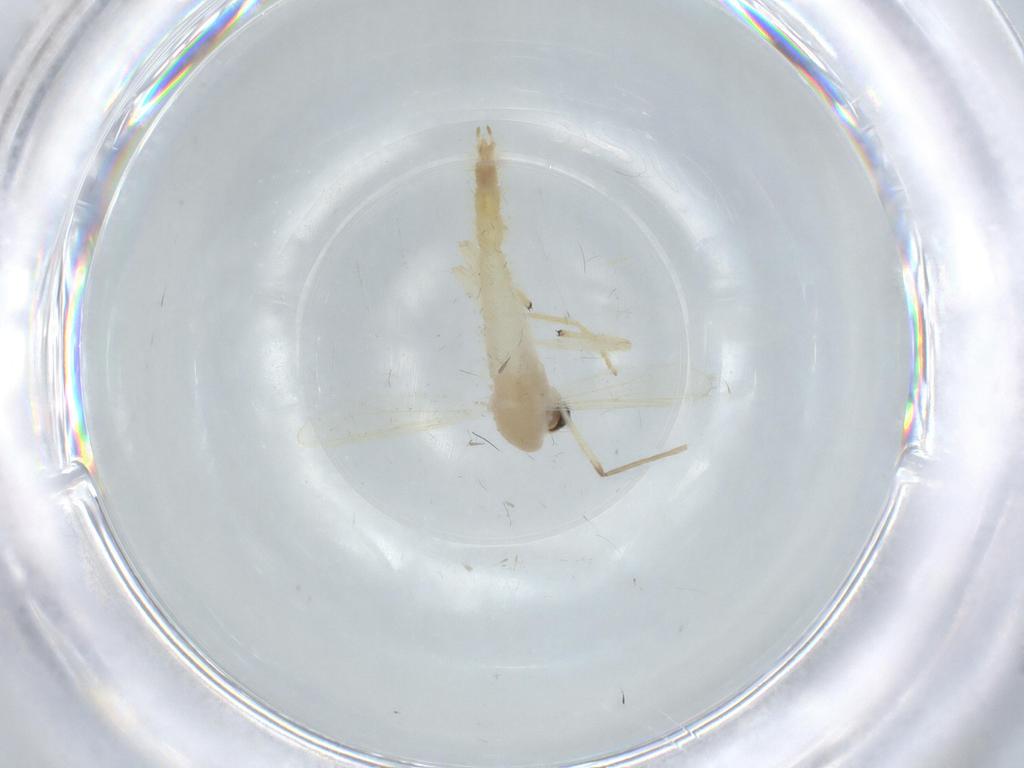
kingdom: Animalia
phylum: Arthropoda
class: Insecta
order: Diptera
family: Chironomidae
